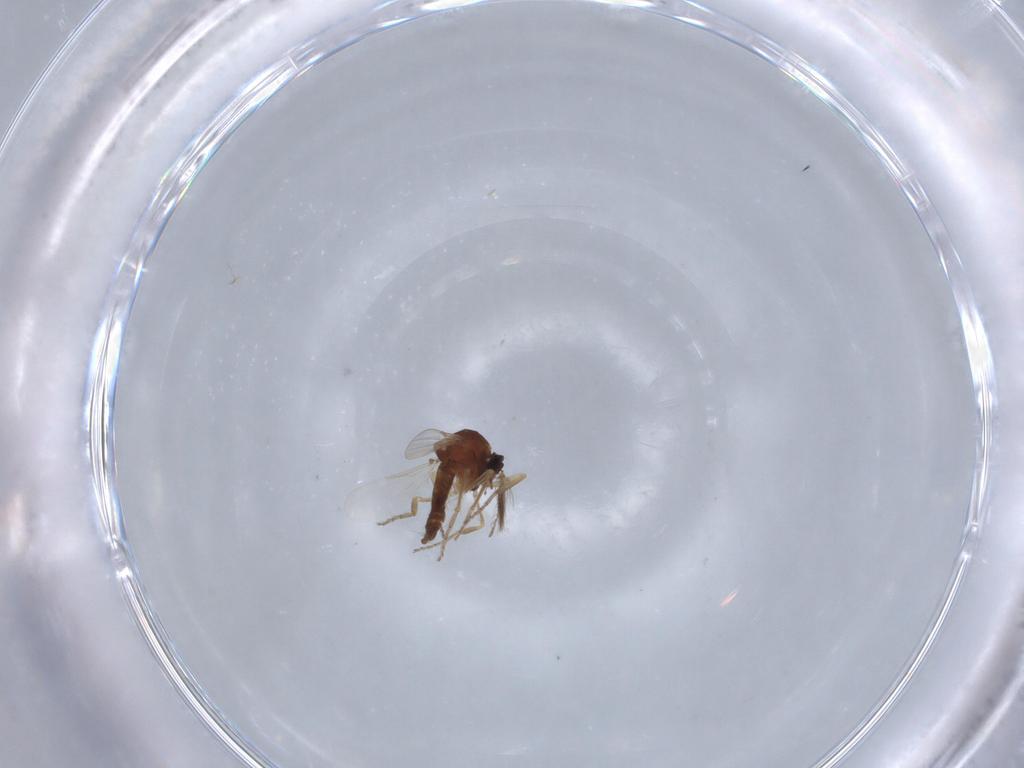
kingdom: Animalia
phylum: Arthropoda
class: Insecta
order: Diptera
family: Ceratopogonidae
